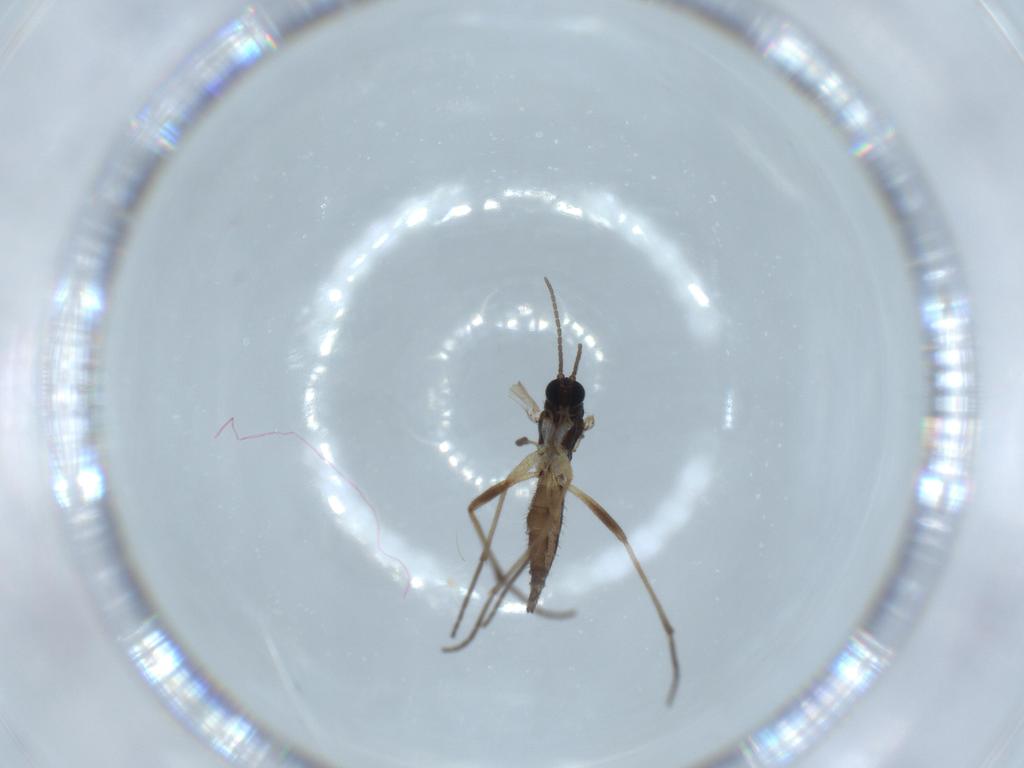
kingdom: Animalia
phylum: Arthropoda
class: Insecta
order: Diptera
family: Sciaridae
